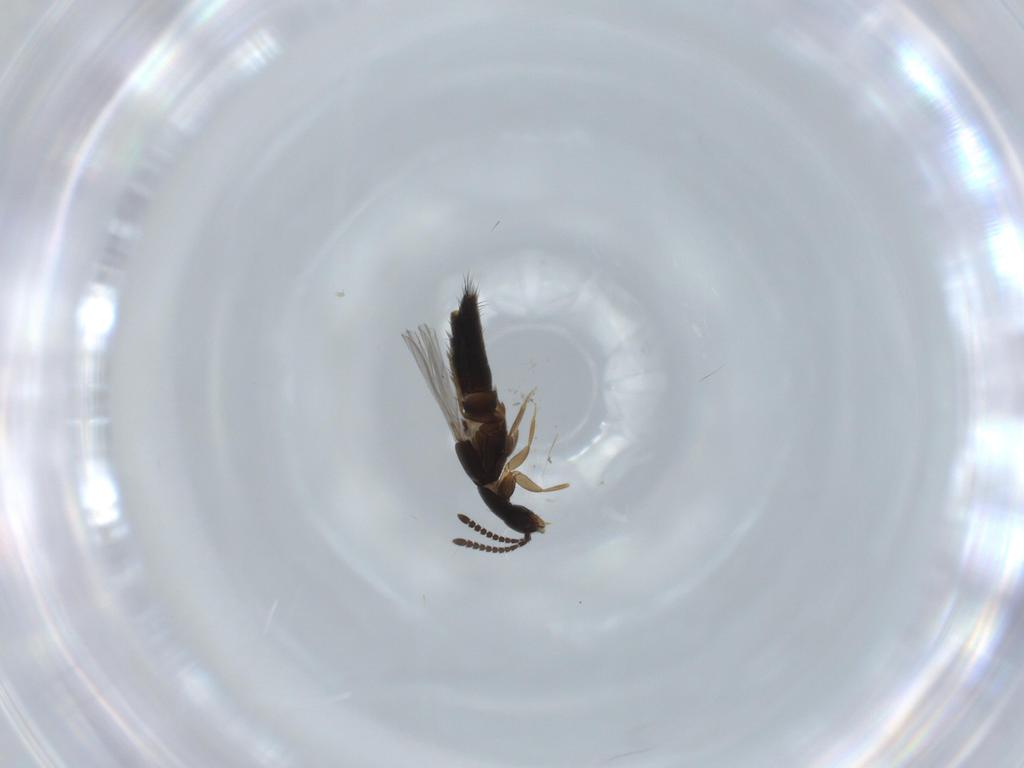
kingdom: Animalia
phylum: Arthropoda
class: Insecta
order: Coleoptera
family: Staphylinidae
